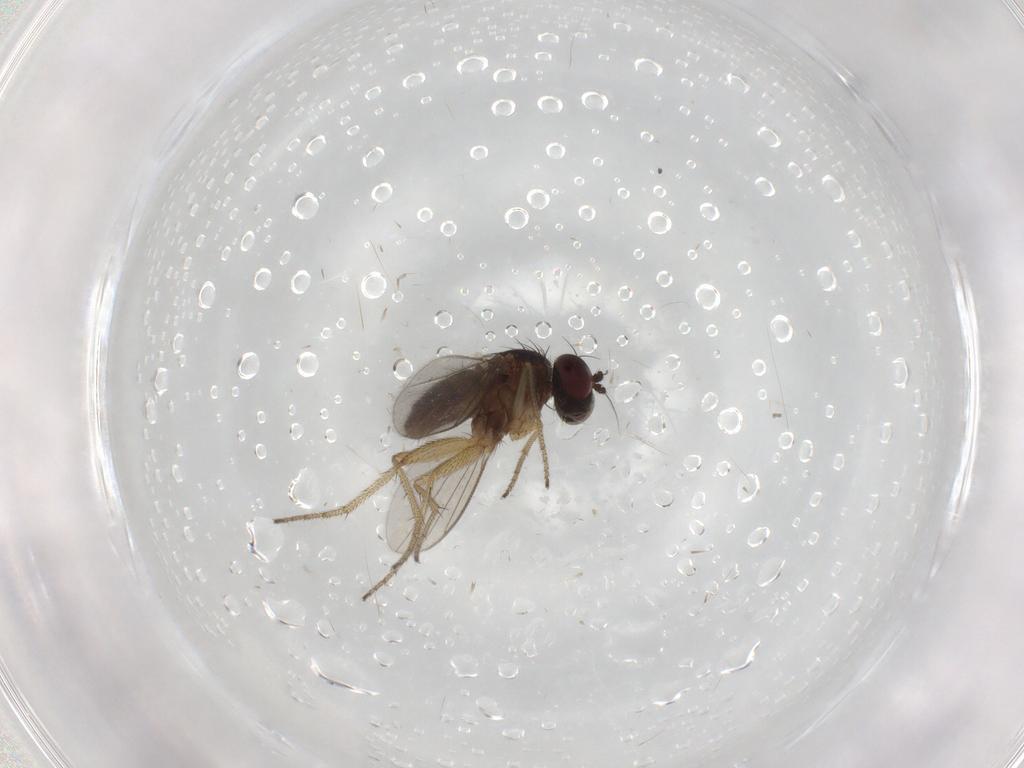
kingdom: Animalia
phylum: Arthropoda
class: Insecta
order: Diptera
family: Dolichopodidae
